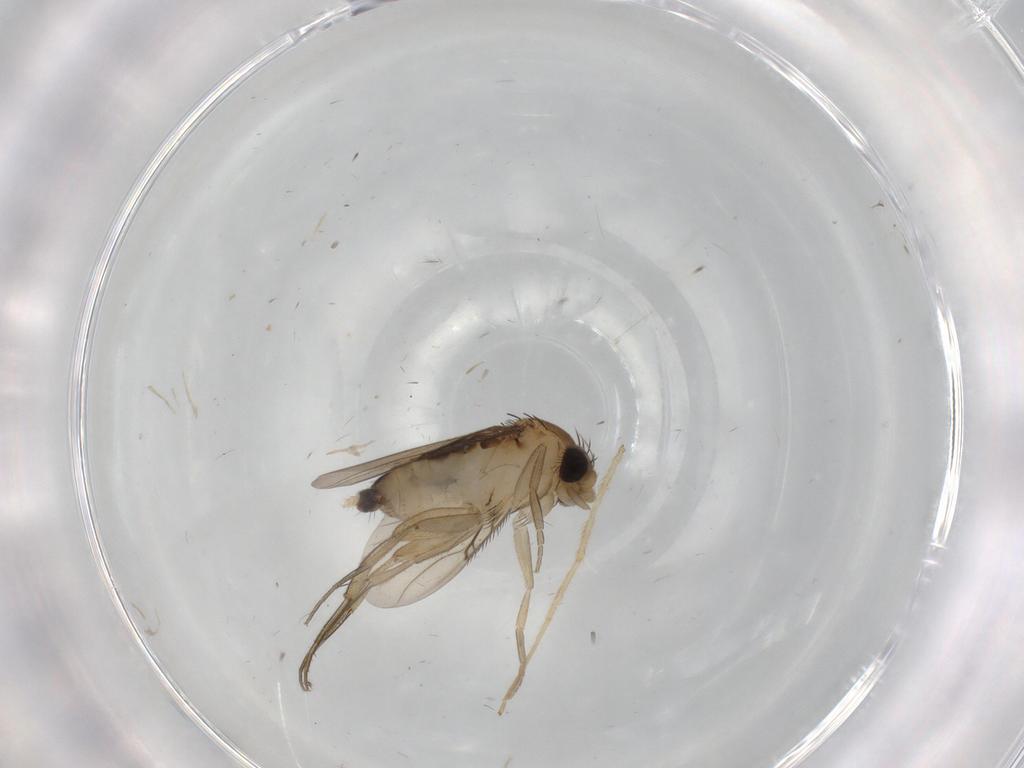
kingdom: Animalia
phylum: Arthropoda
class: Insecta
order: Diptera
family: Phoridae
